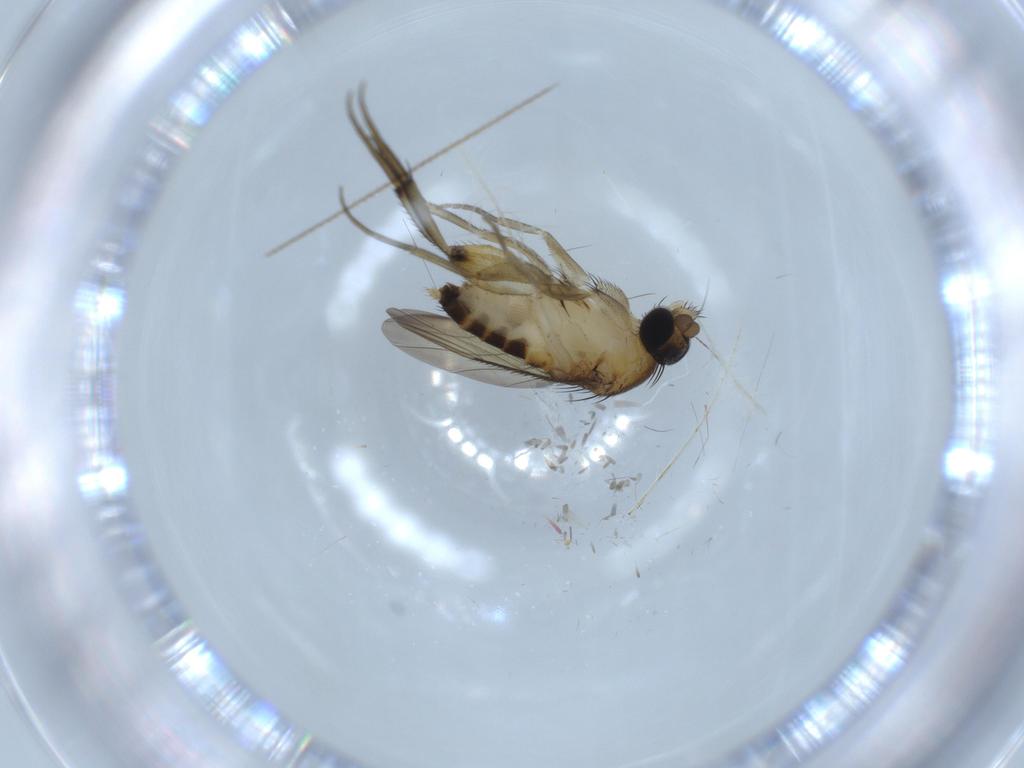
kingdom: Animalia
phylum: Arthropoda
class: Insecta
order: Diptera
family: Phoridae
